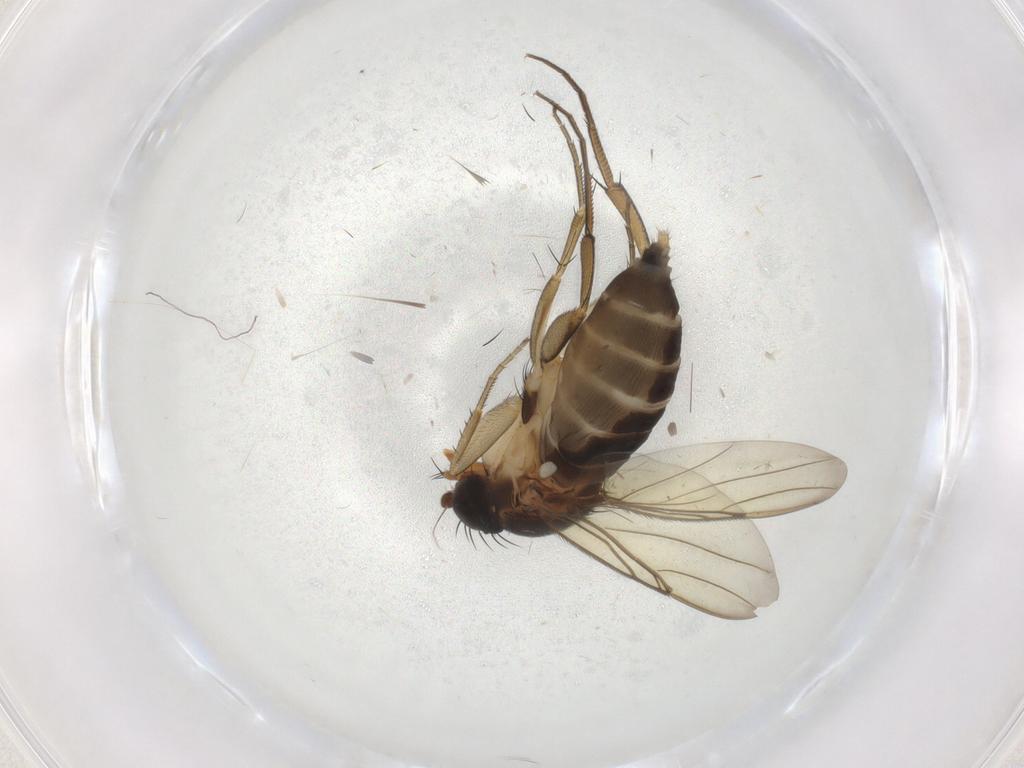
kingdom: Animalia
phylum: Arthropoda
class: Insecta
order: Diptera
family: Phoridae
